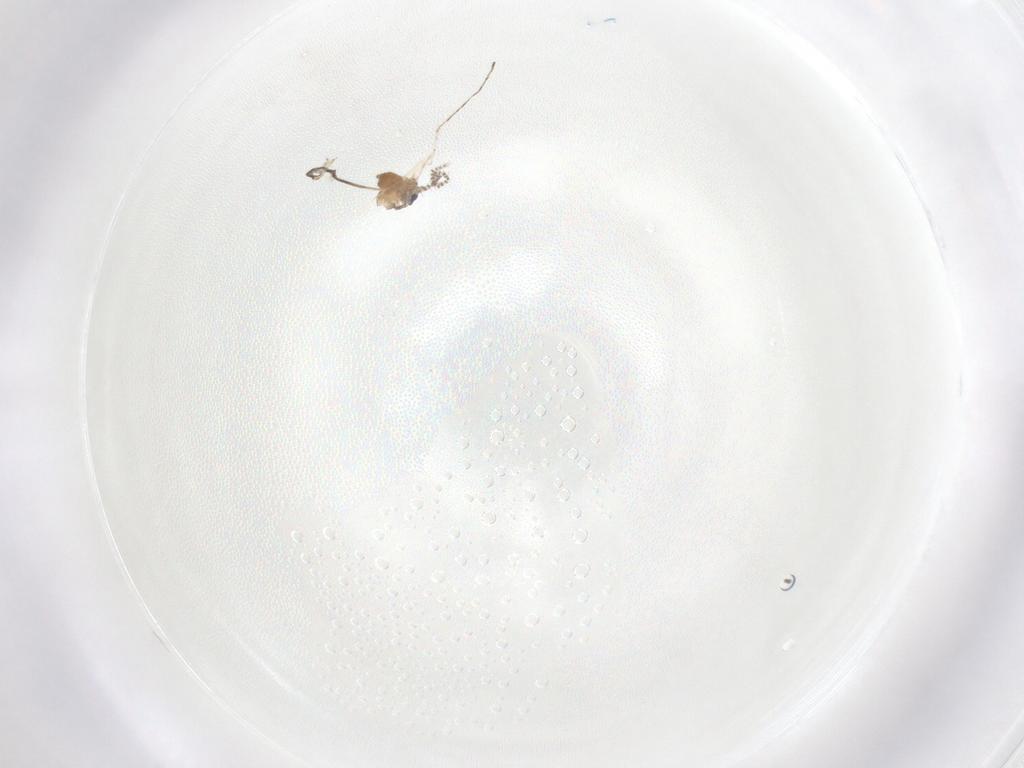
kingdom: Animalia
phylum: Arthropoda
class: Insecta
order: Diptera
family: Cecidomyiidae
